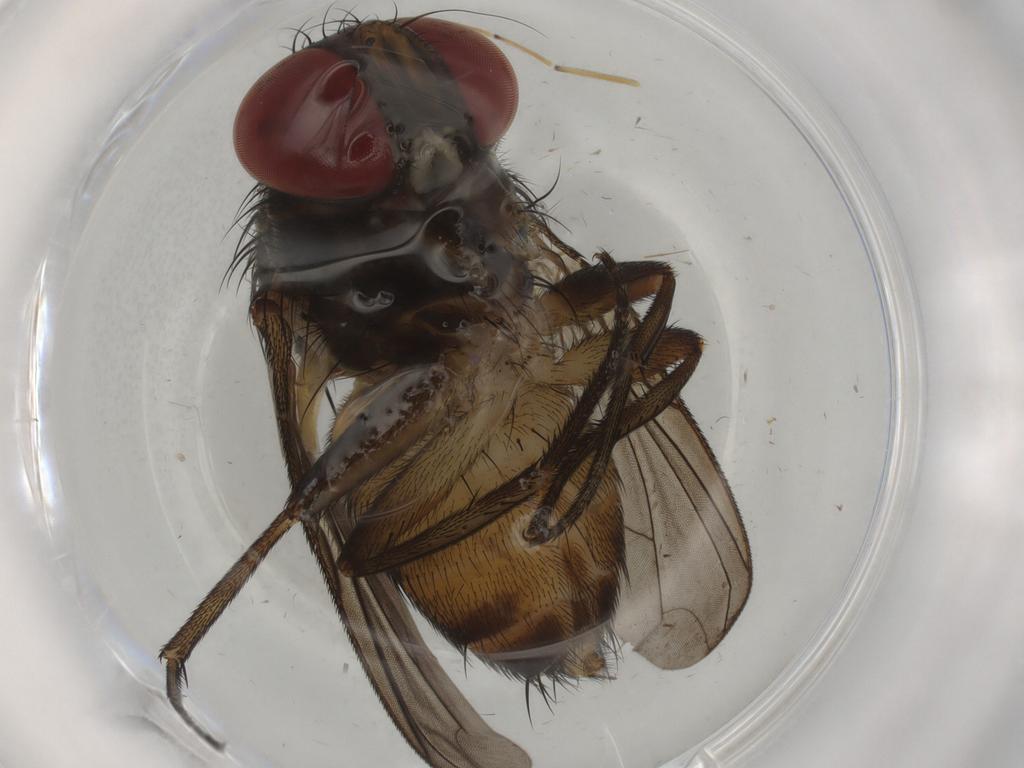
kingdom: Animalia
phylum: Arthropoda
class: Insecta
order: Diptera
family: Sarcophagidae
